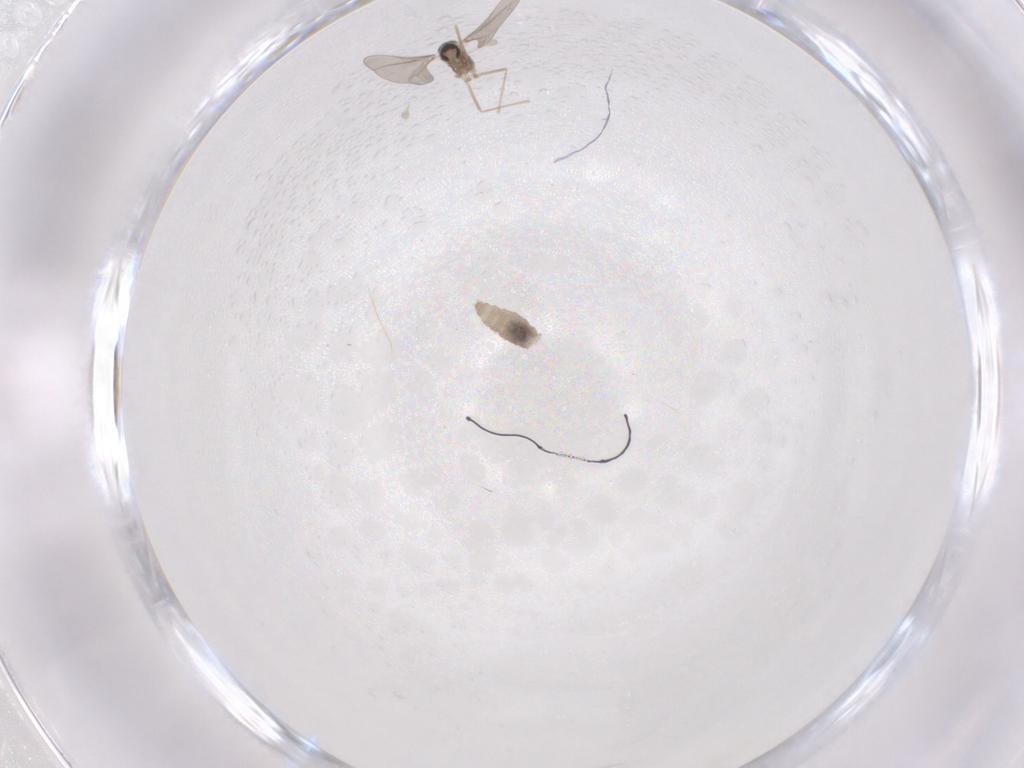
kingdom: Animalia
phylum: Arthropoda
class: Insecta
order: Diptera
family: Cecidomyiidae
